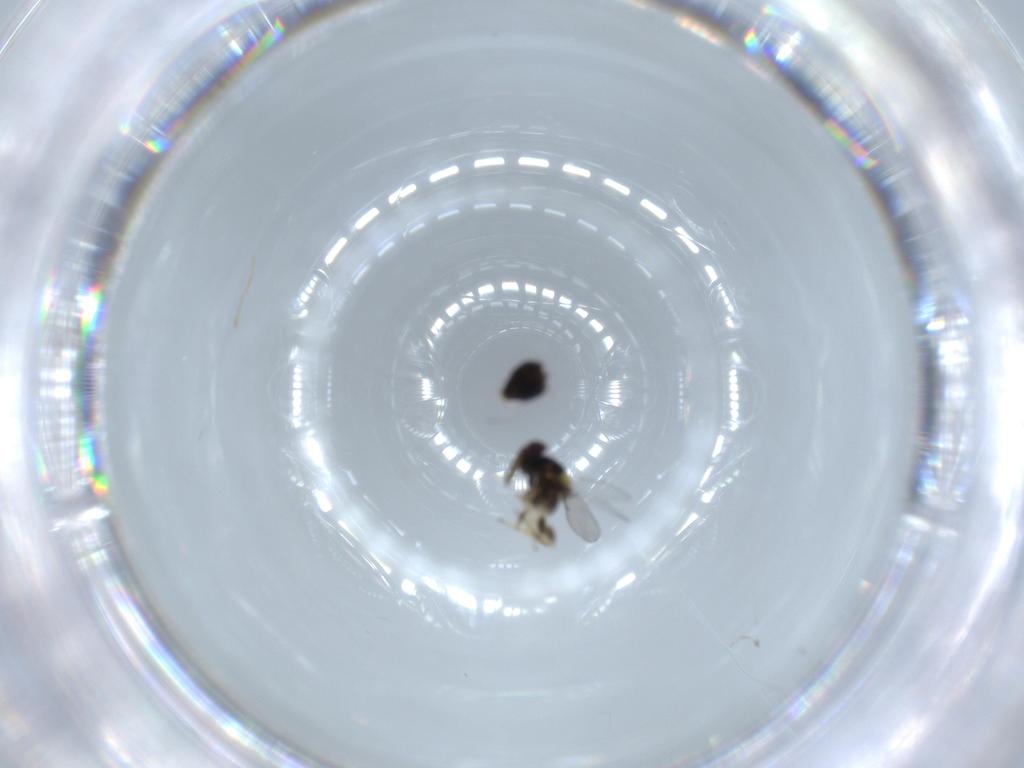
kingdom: Animalia
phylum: Arthropoda
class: Insecta
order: Hymenoptera
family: Aphelinidae
